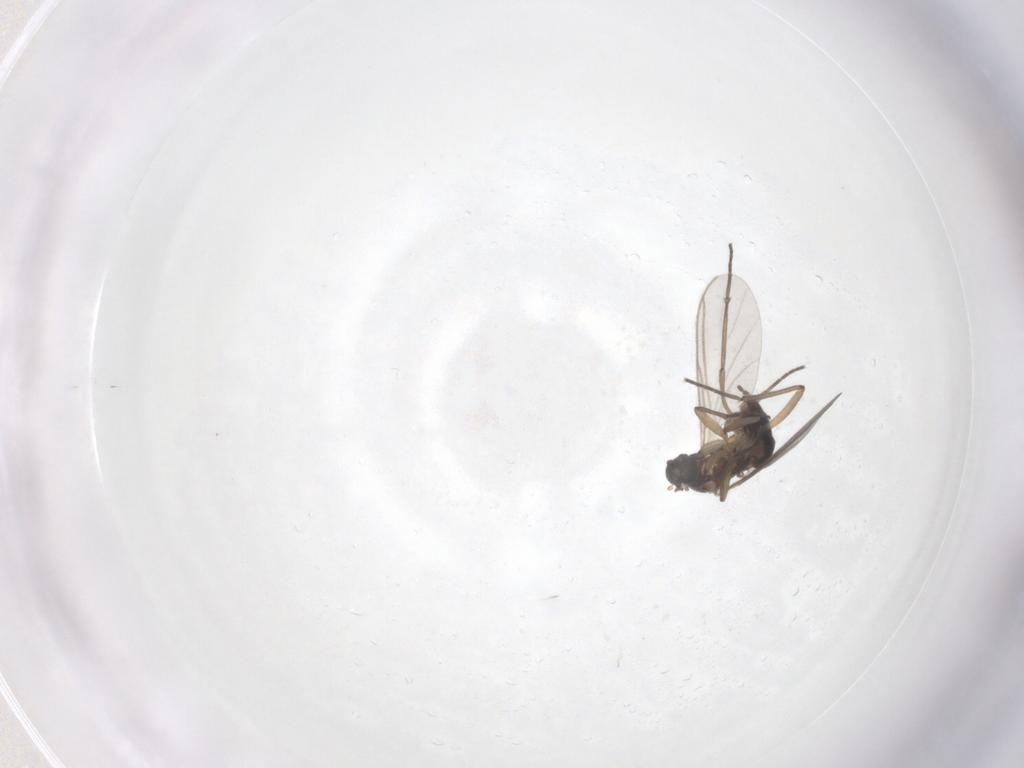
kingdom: Animalia
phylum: Arthropoda
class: Insecta
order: Diptera
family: Sciaridae
